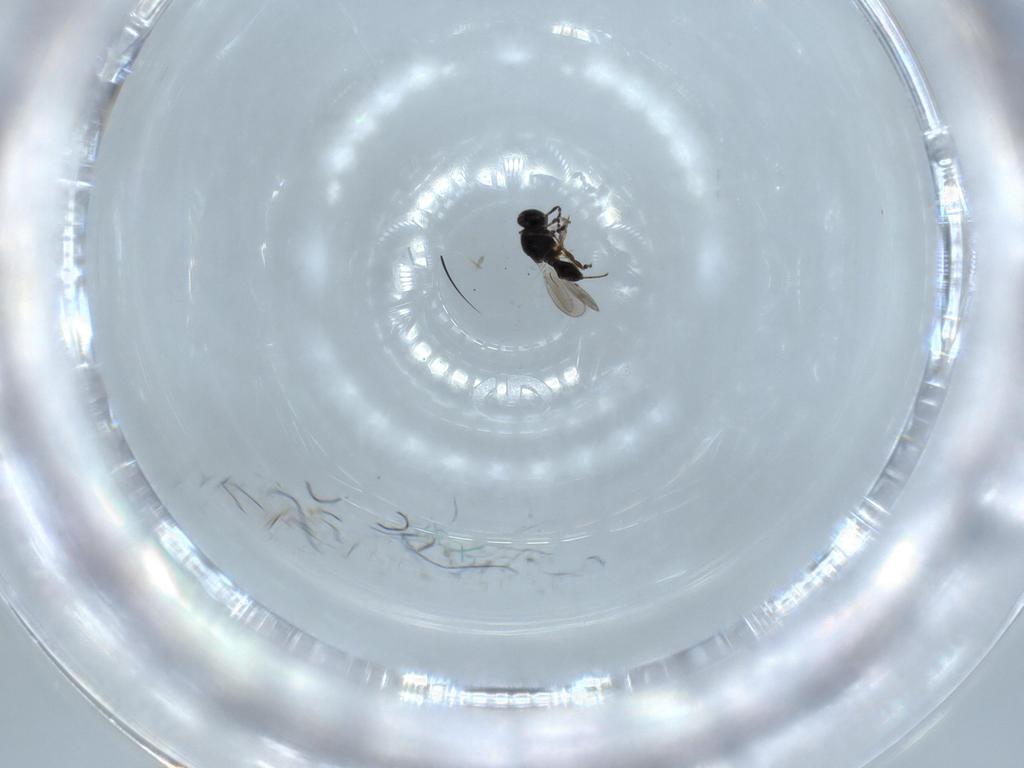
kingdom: Animalia
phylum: Arthropoda
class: Insecta
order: Hymenoptera
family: Platygastridae
